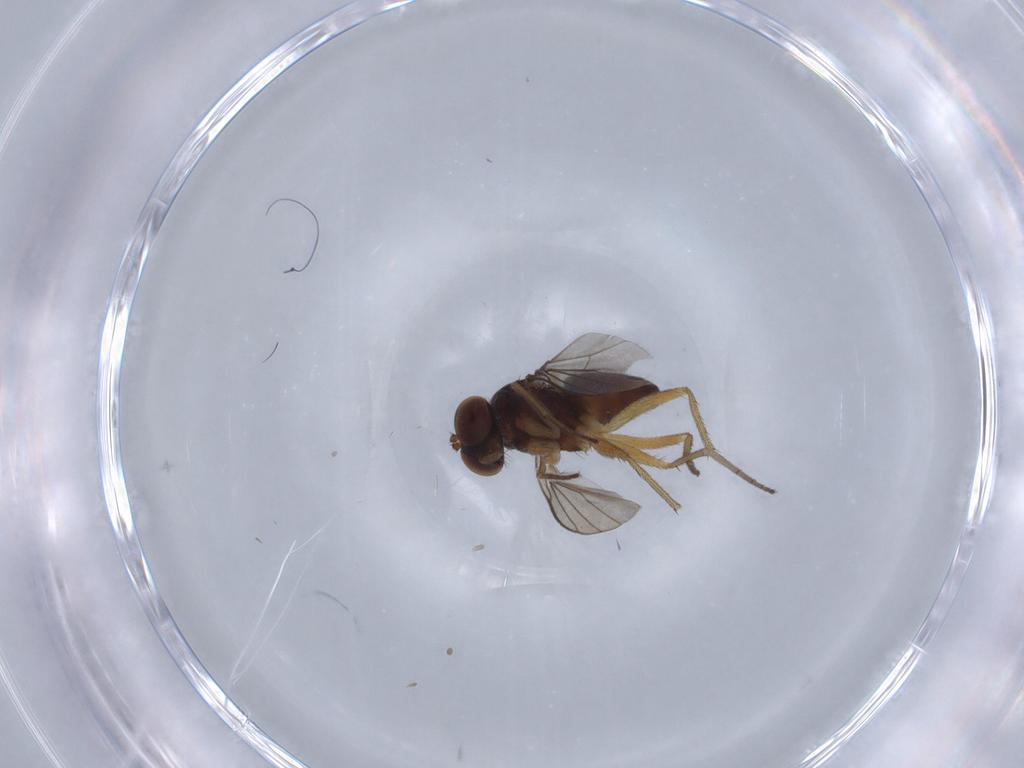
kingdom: Animalia
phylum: Arthropoda
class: Insecta
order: Diptera
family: Dolichopodidae
